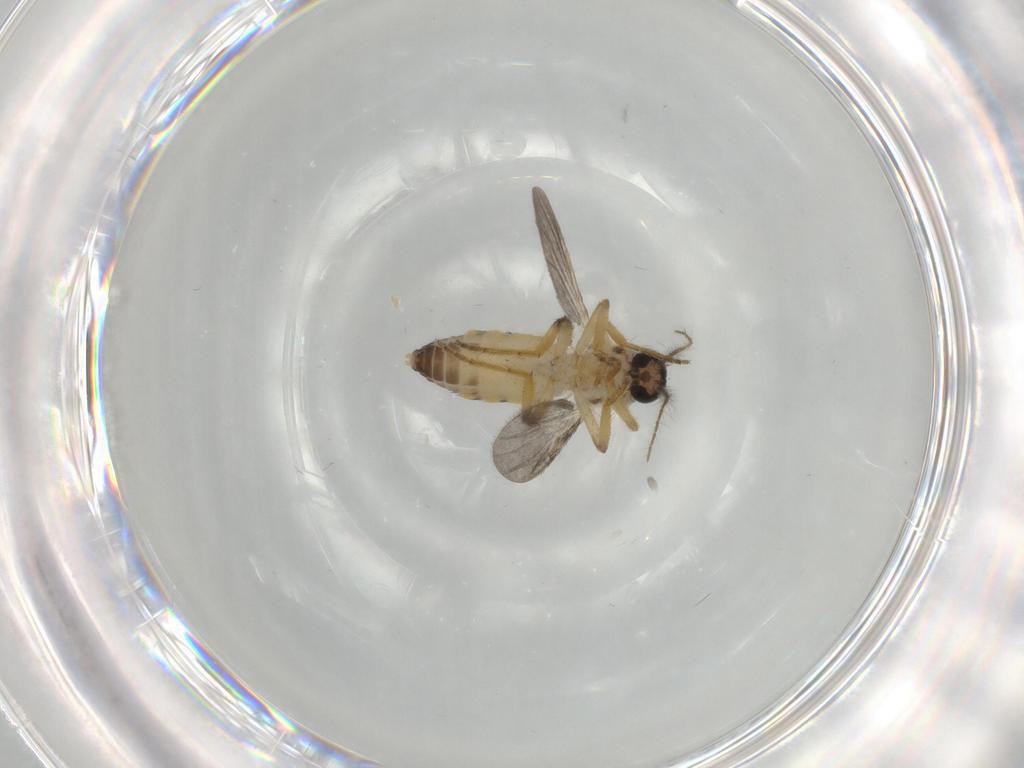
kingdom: Animalia
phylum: Arthropoda
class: Insecta
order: Diptera
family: Ceratopogonidae
